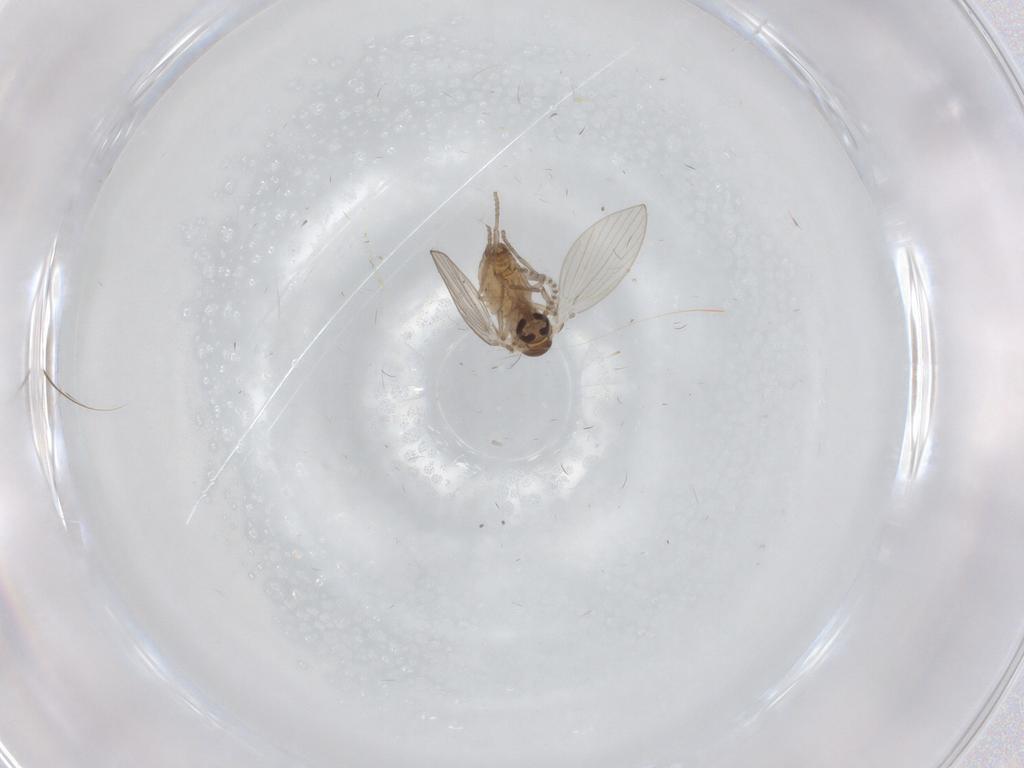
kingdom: Animalia
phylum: Arthropoda
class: Insecta
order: Diptera
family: Psychodidae
